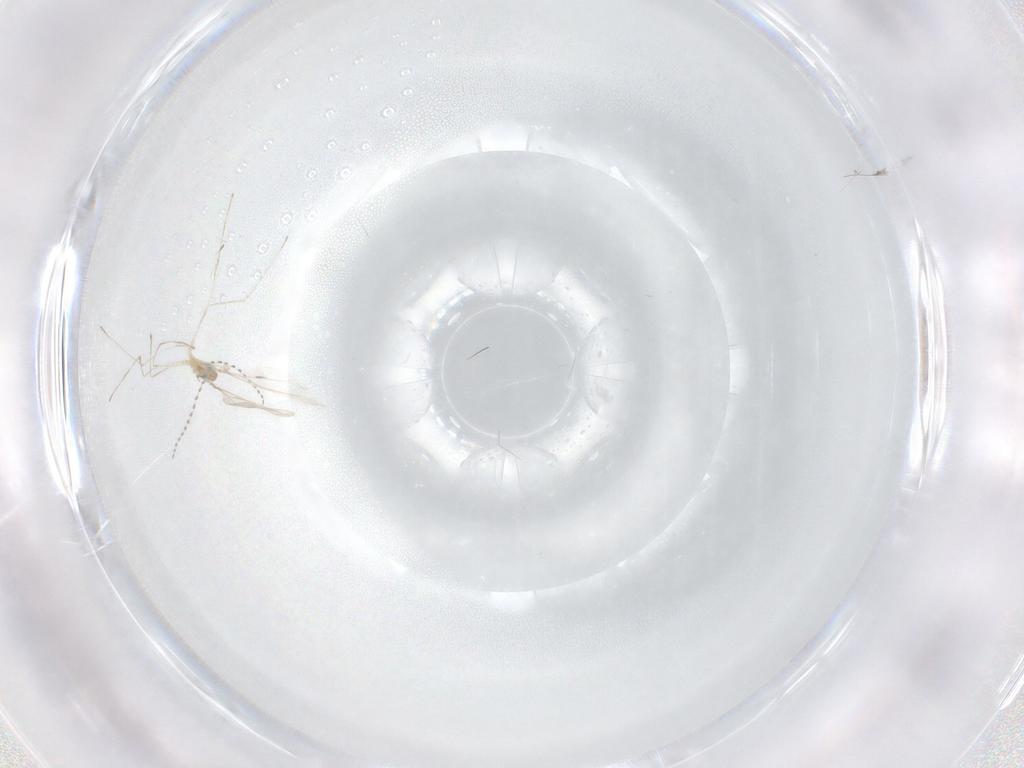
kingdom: Animalia
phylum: Arthropoda
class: Insecta
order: Diptera
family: Cecidomyiidae
